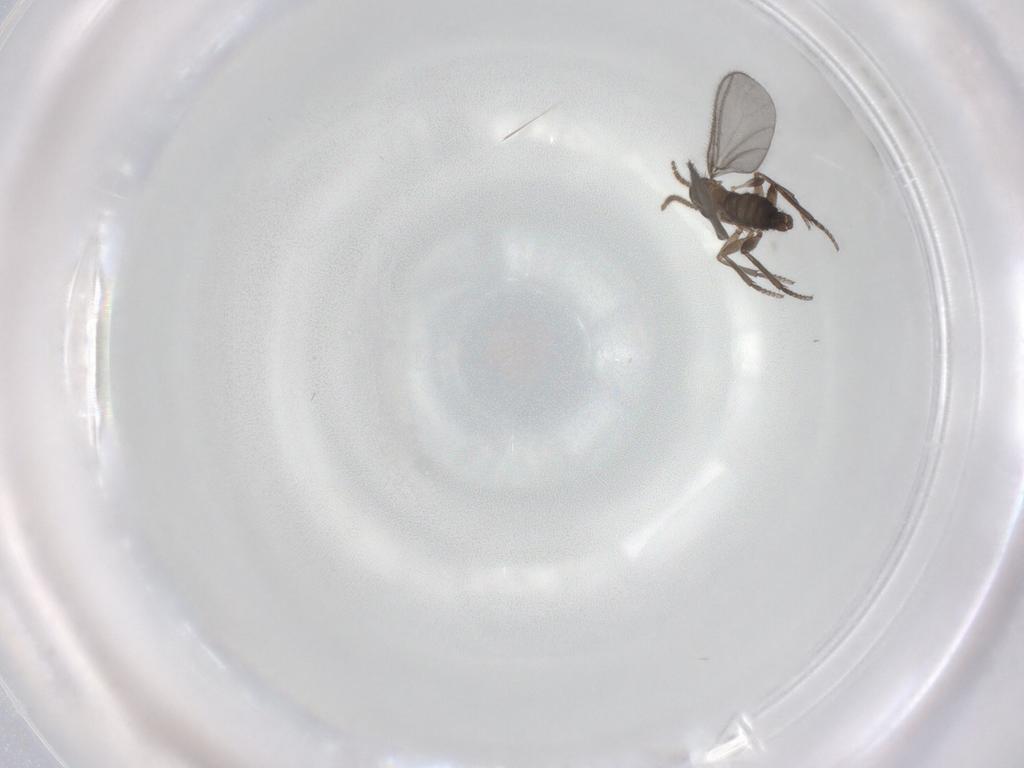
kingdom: Animalia
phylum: Arthropoda
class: Insecta
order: Diptera
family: Sciaridae
